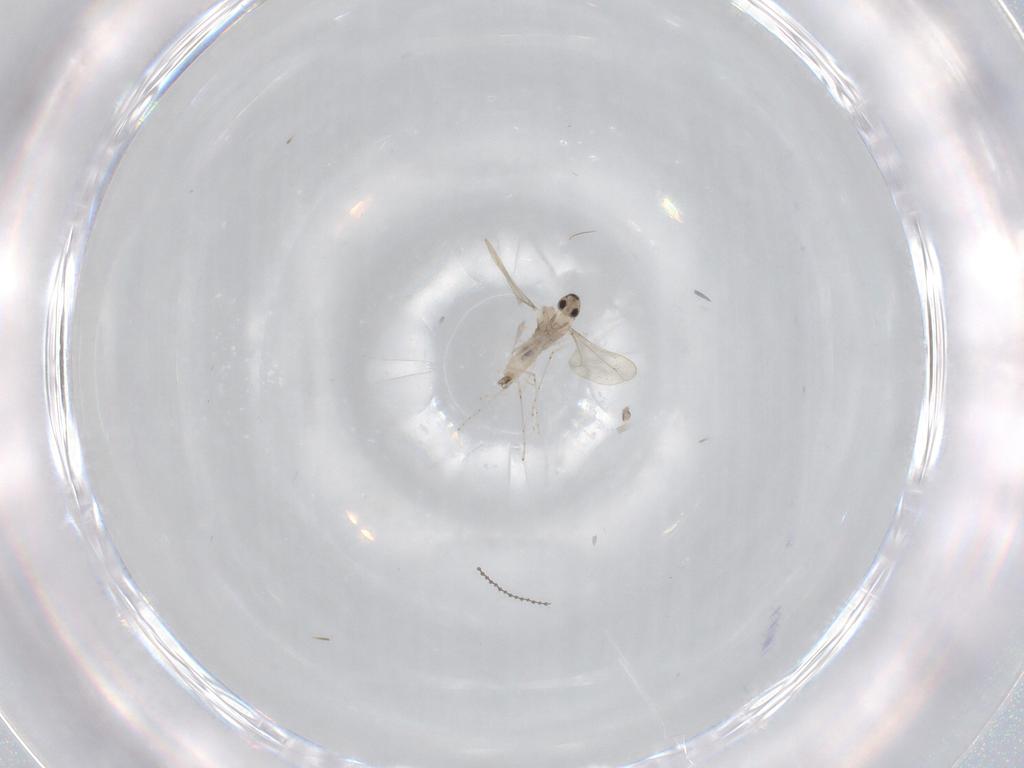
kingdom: Animalia
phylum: Arthropoda
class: Insecta
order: Diptera
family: Cecidomyiidae
